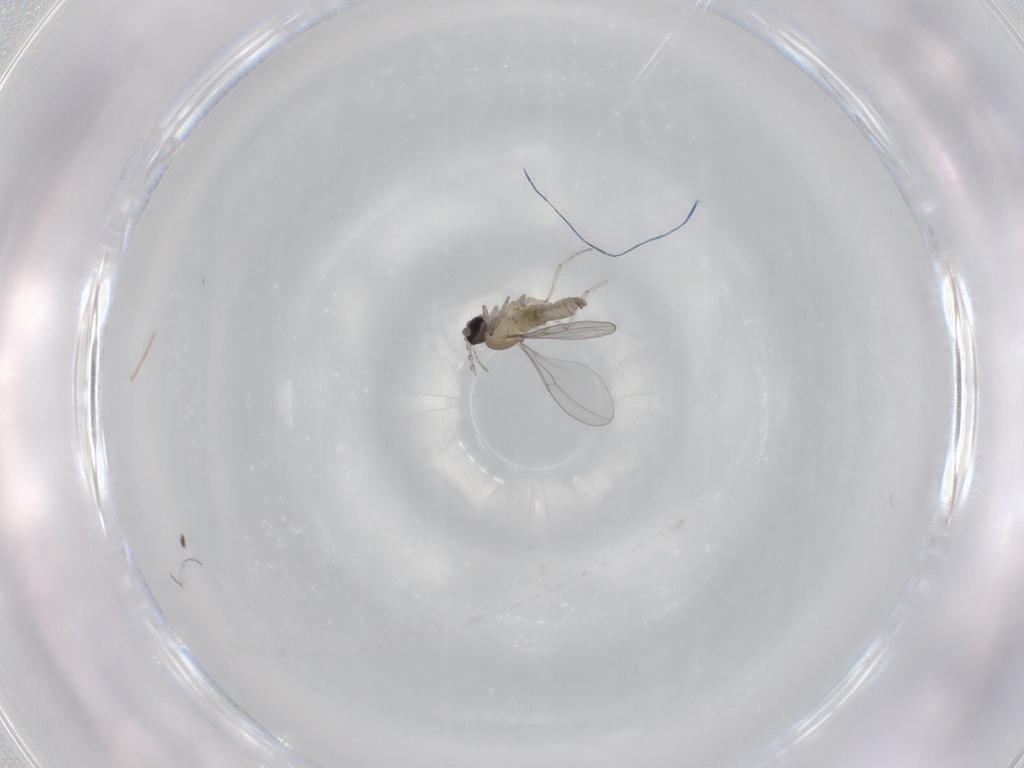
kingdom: Animalia
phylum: Arthropoda
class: Insecta
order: Diptera
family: Cecidomyiidae
